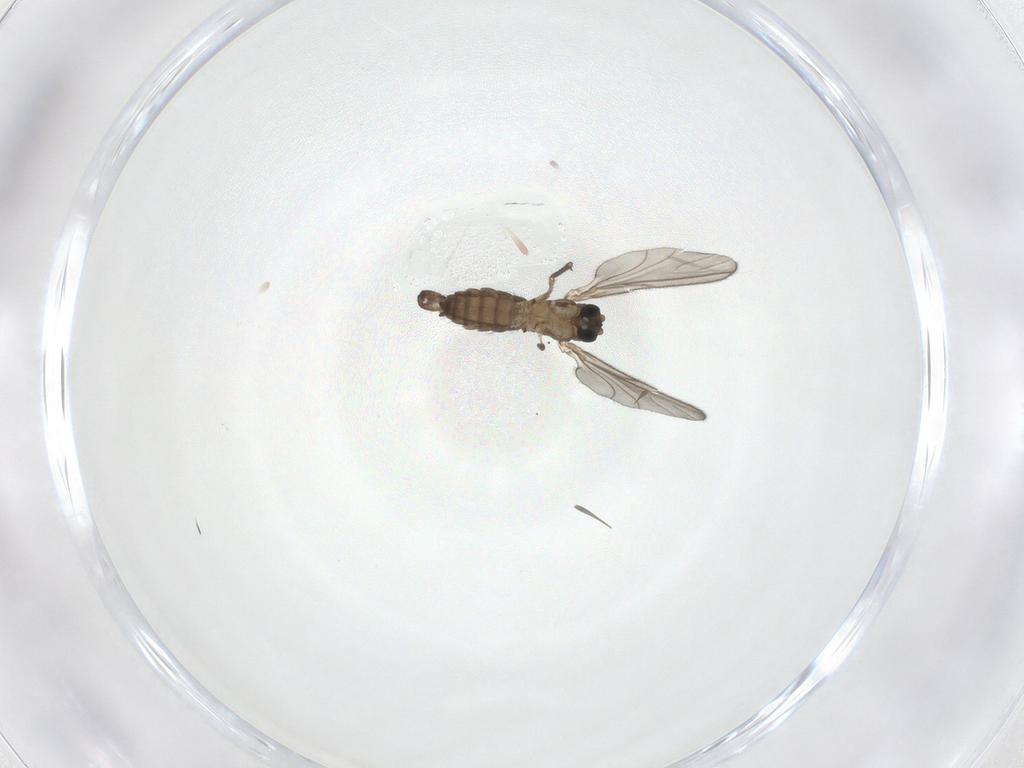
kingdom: Animalia
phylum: Arthropoda
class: Insecta
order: Diptera
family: Sciaridae
